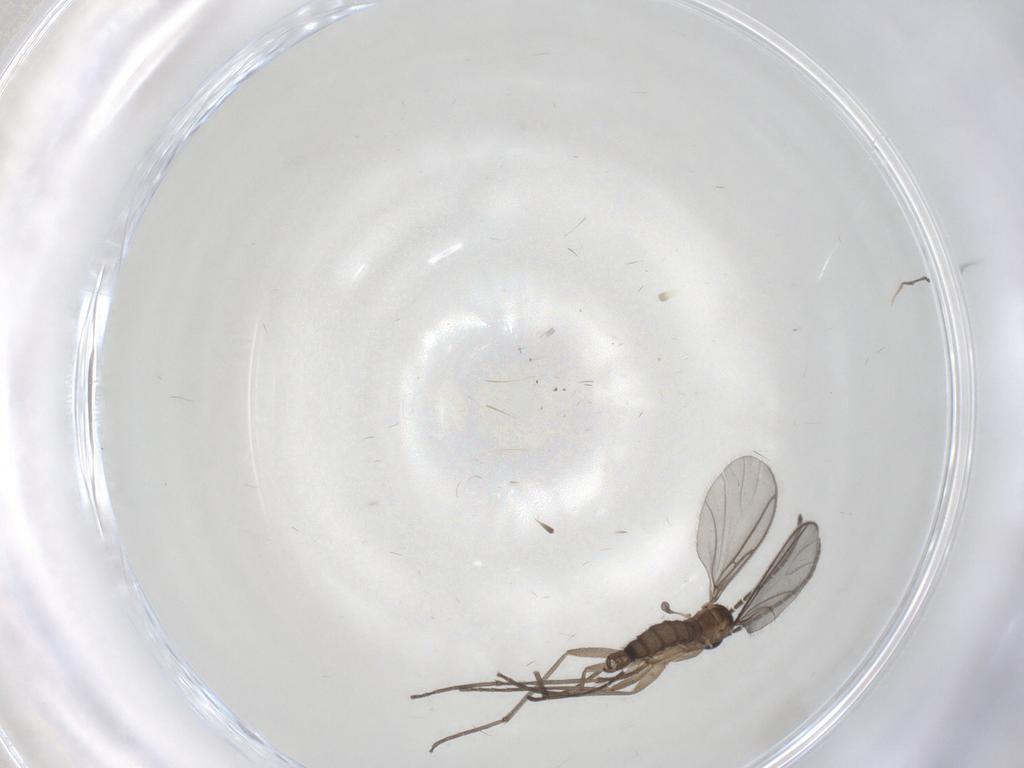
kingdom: Animalia
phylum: Arthropoda
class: Insecta
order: Diptera
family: Sciaridae
